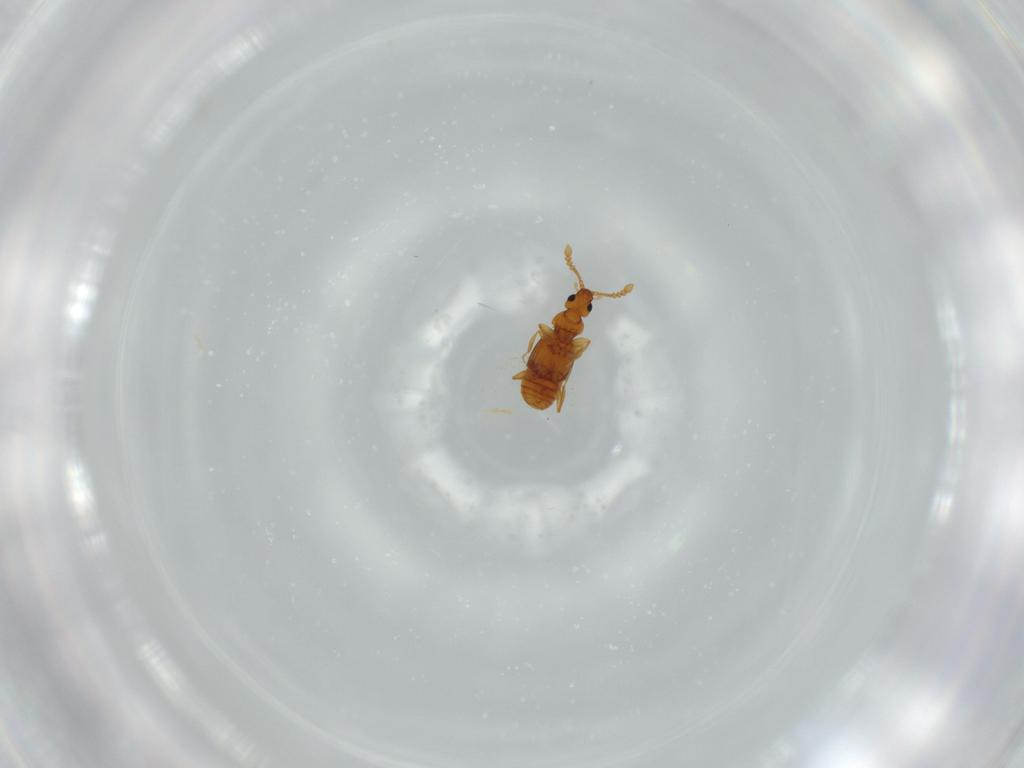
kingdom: Animalia
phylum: Arthropoda
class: Insecta
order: Coleoptera
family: Staphylinidae
